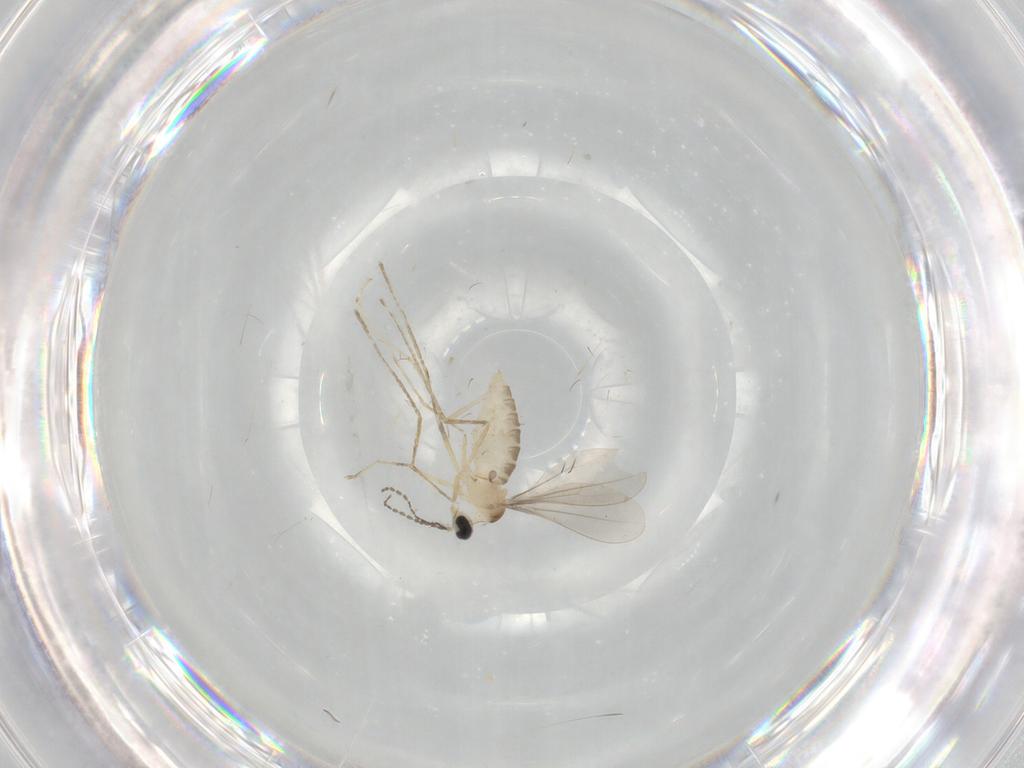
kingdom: Animalia
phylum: Arthropoda
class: Insecta
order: Diptera
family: Cecidomyiidae
